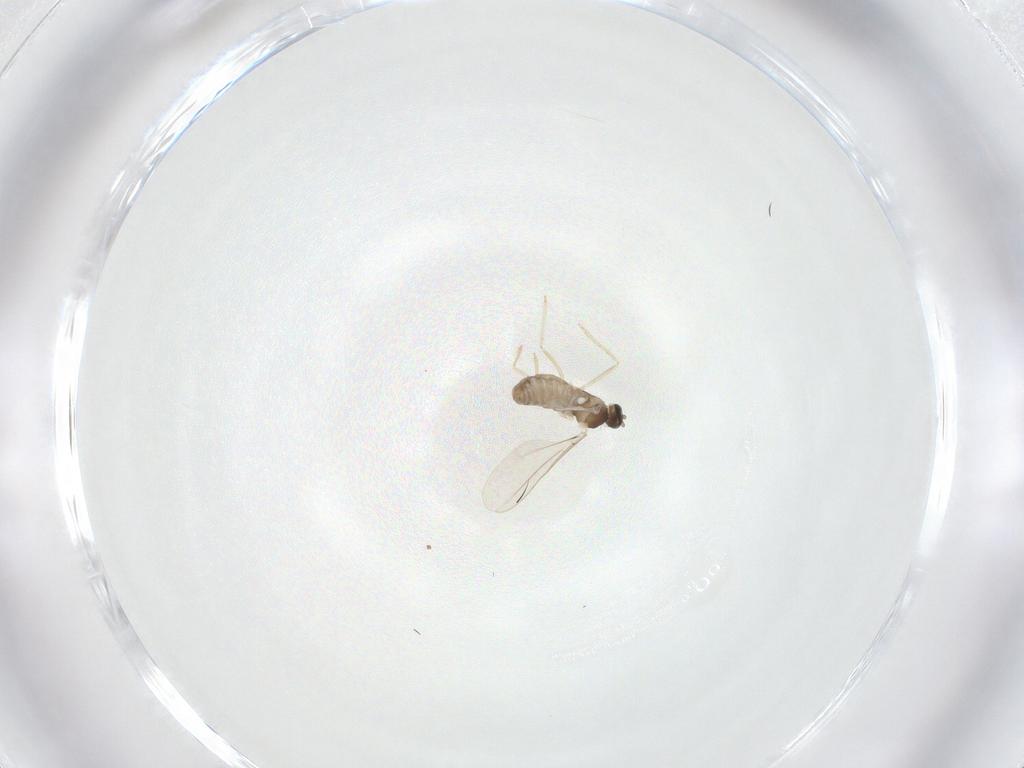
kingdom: Animalia
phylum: Arthropoda
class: Insecta
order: Diptera
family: Cecidomyiidae
